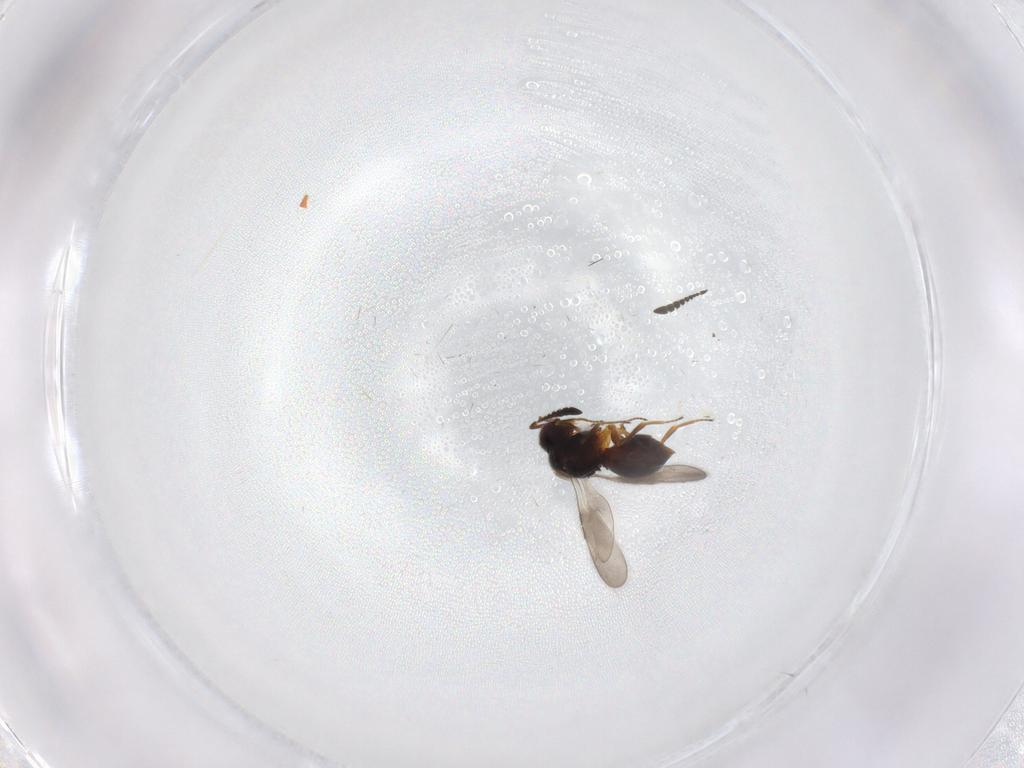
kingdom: Animalia
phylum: Arthropoda
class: Insecta
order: Hymenoptera
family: Ceraphronidae
